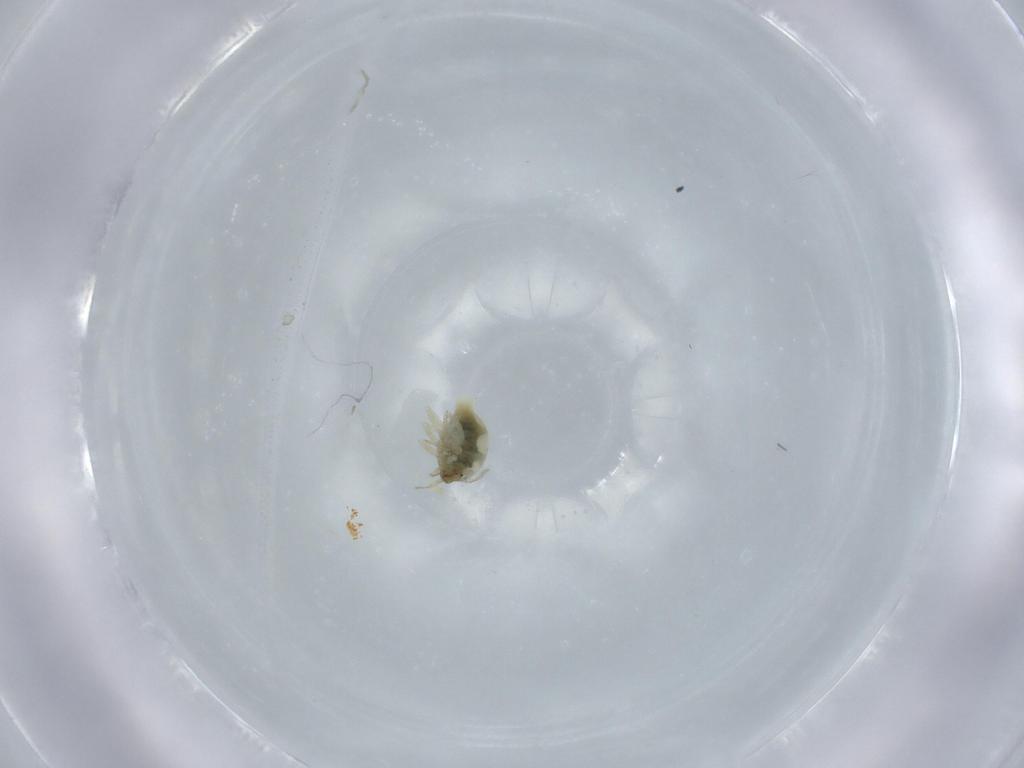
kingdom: Animalia
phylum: Arthropoda
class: Insecta
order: Neuroptera
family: Coniopterygidae
